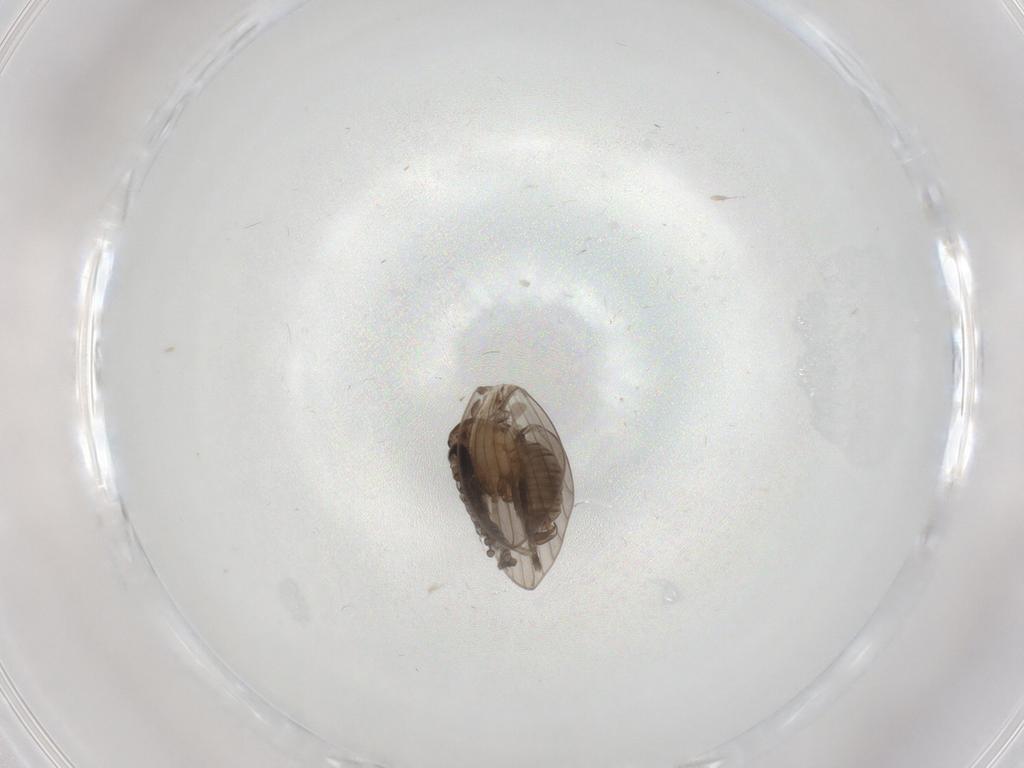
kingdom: Animalia
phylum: Arthropoda
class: Insecta
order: Diptera
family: Psychodidae
